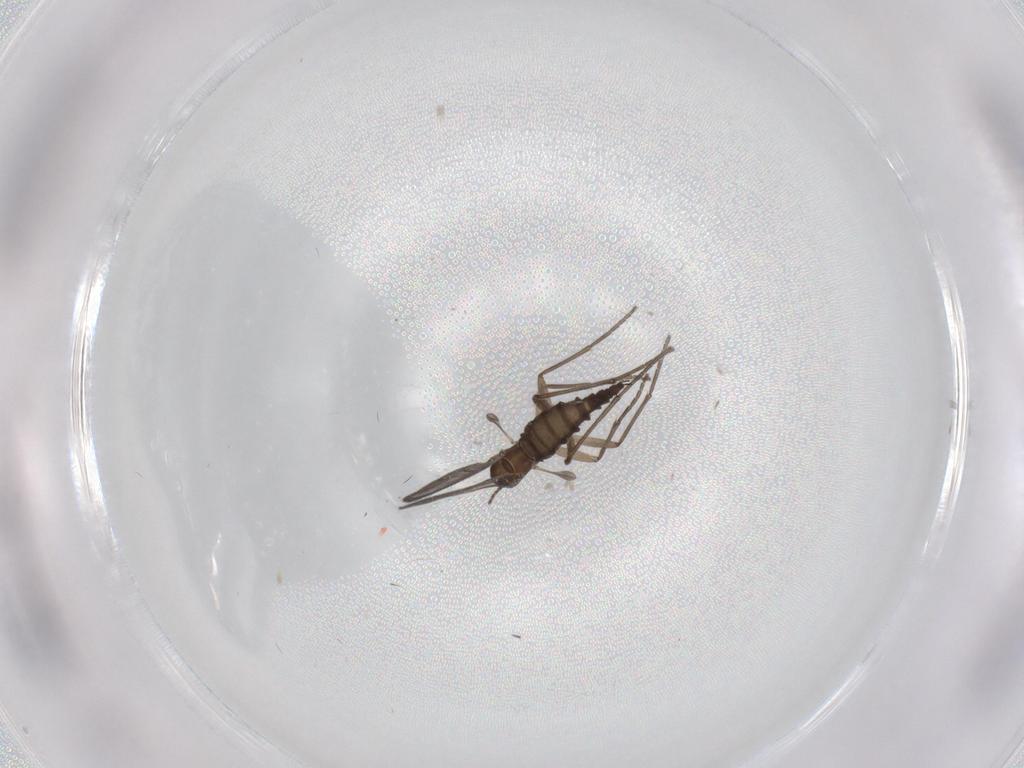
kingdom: Animalia
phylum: Arthropoda
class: Insecta
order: Diptera
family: Sciaridae
